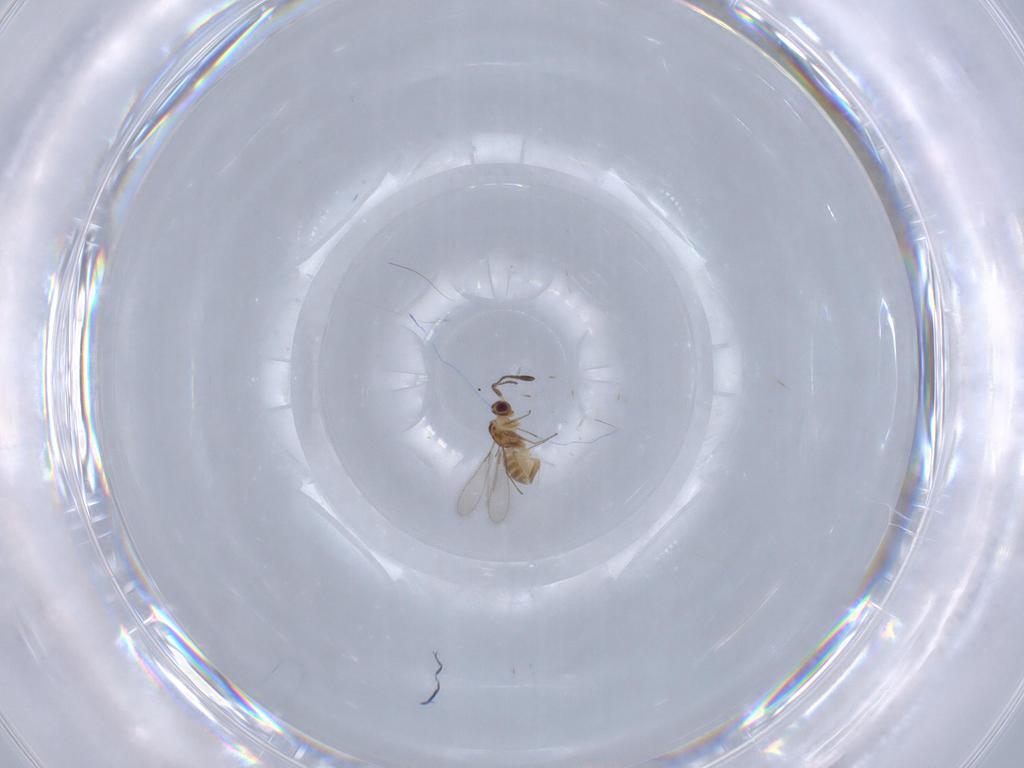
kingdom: Animalia
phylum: Arthropoda
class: Insecta
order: Hymenoptera
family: Mymaridae
